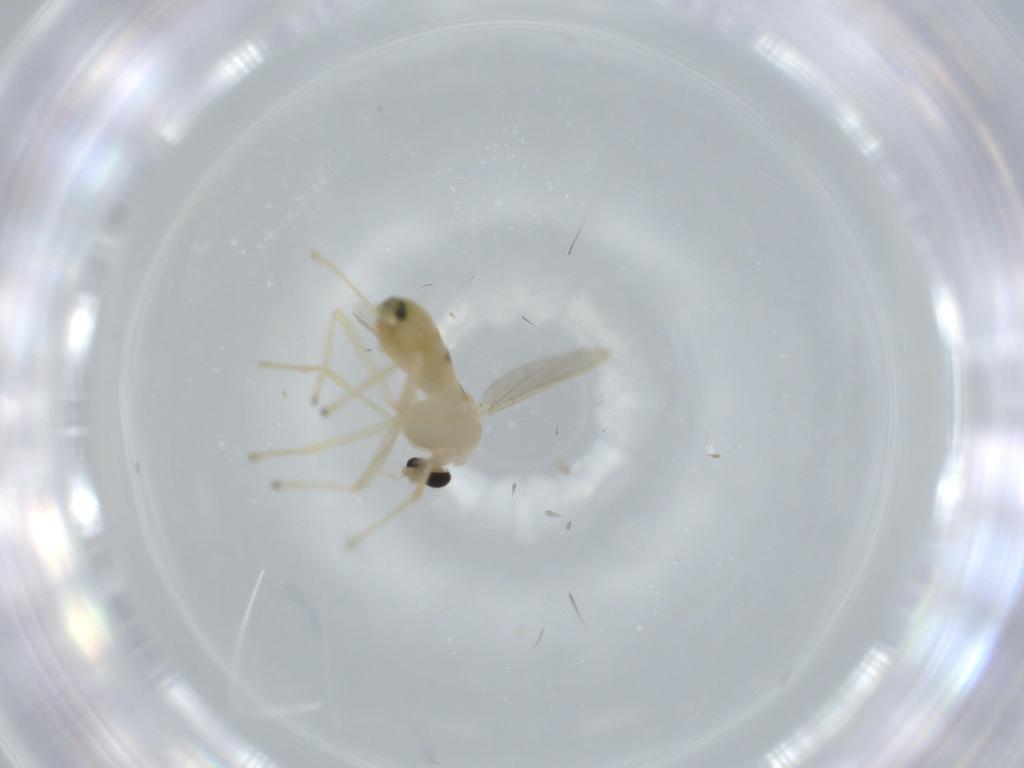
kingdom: Animalia
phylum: Arthropoda
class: Insecta
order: Diptera
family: Chironomidae
